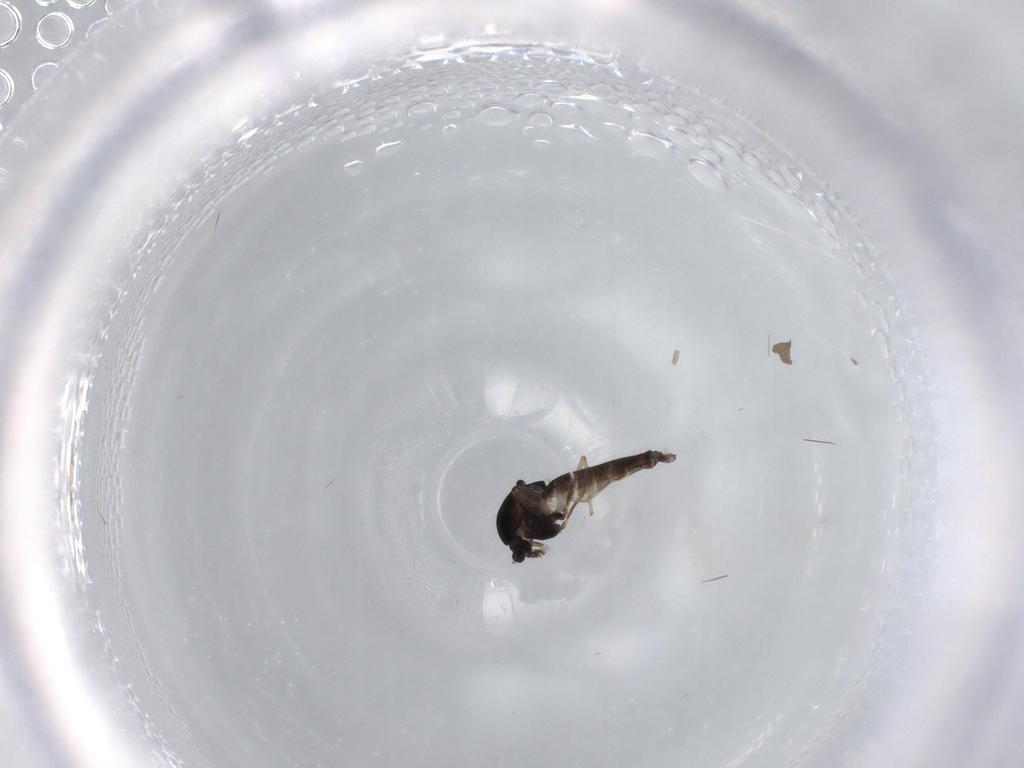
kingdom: Animalia
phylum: Arthropoda
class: Insecta
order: Diptera
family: Chironomidae
